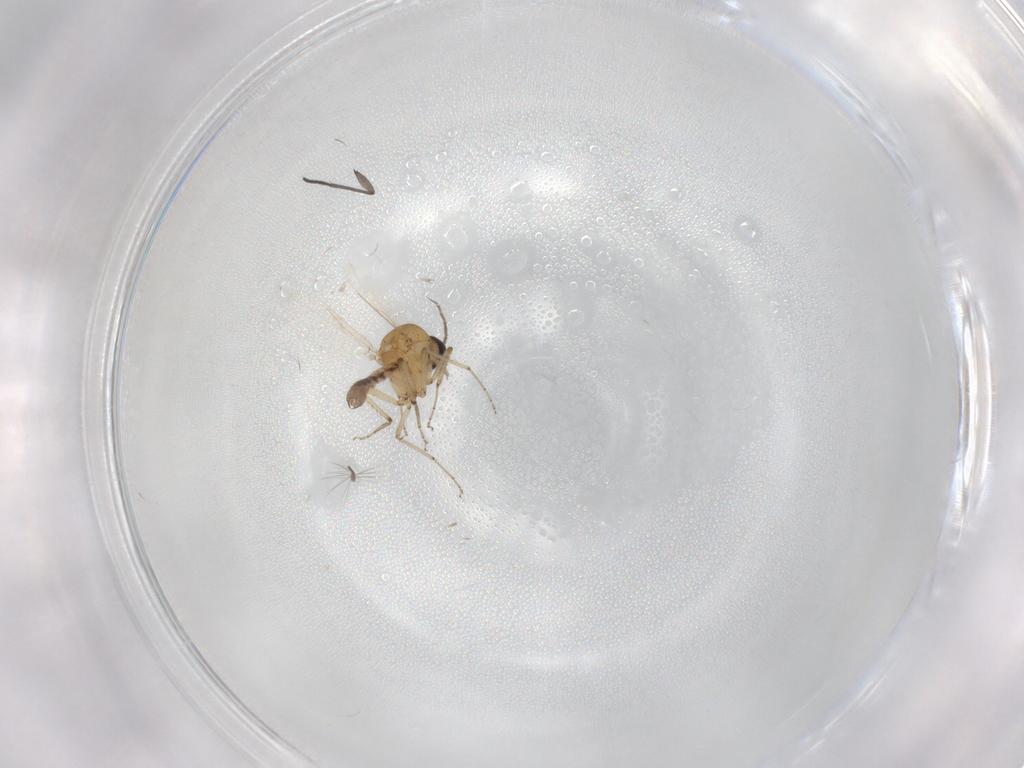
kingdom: Animalia
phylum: Arthropoda
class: Insecta
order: Diptera
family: Ceratopogonidae
